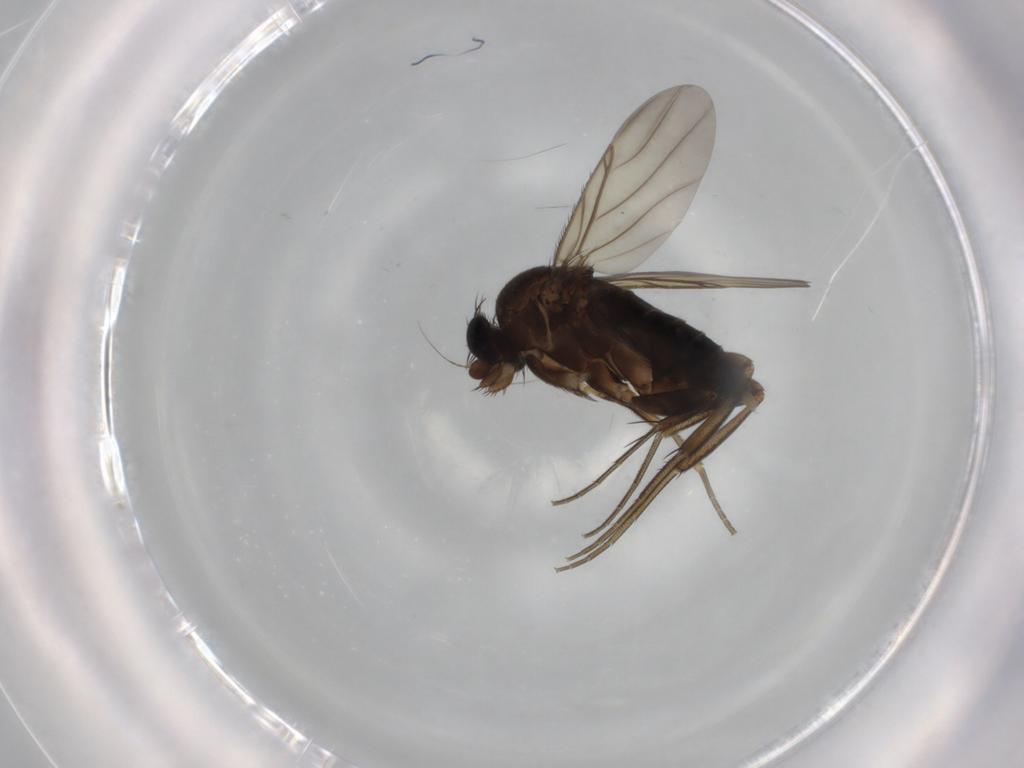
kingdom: Animalia
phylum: Arthropoda
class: Insecta
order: Diptera
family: Phoridae
